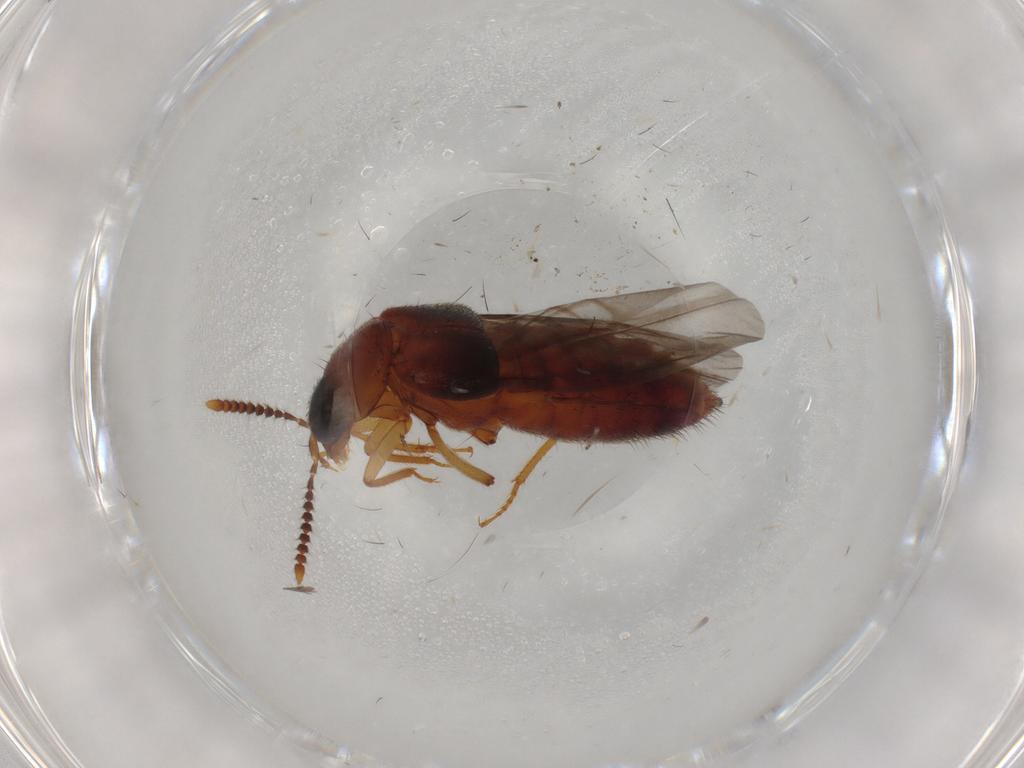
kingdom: Animalia
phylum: Arthropoda
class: Insecta
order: Coleoptera
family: Staphylinidae
